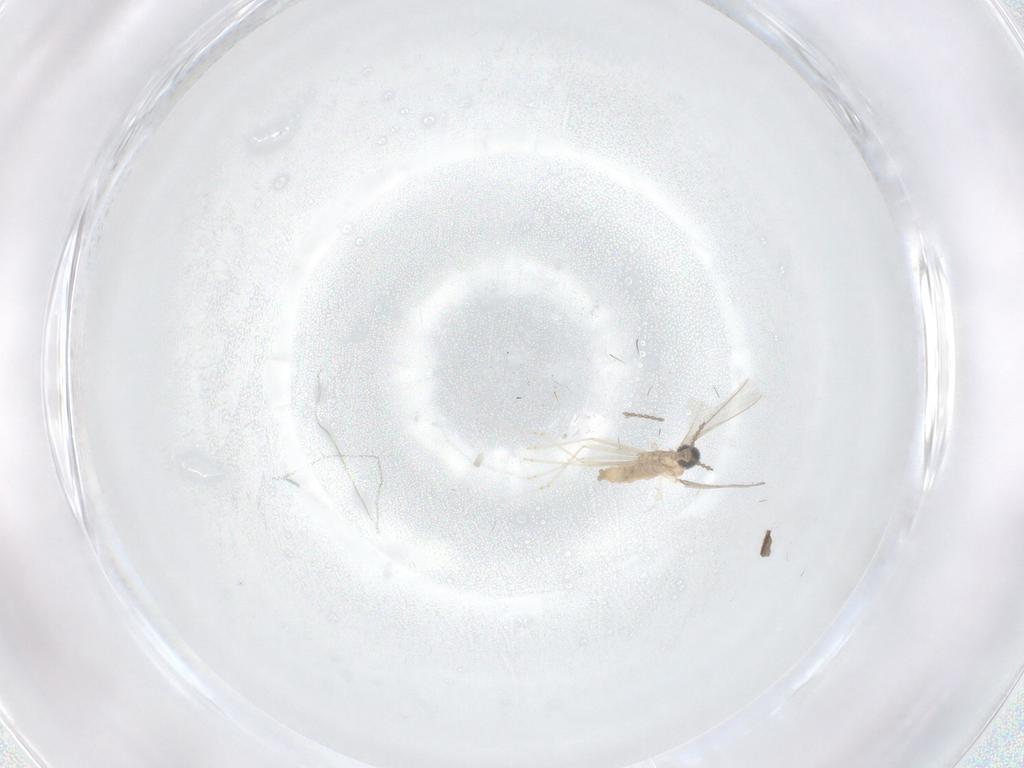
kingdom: Animalia
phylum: Arthropoda
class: Insecta
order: Diptera
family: Cecidomyiidae
